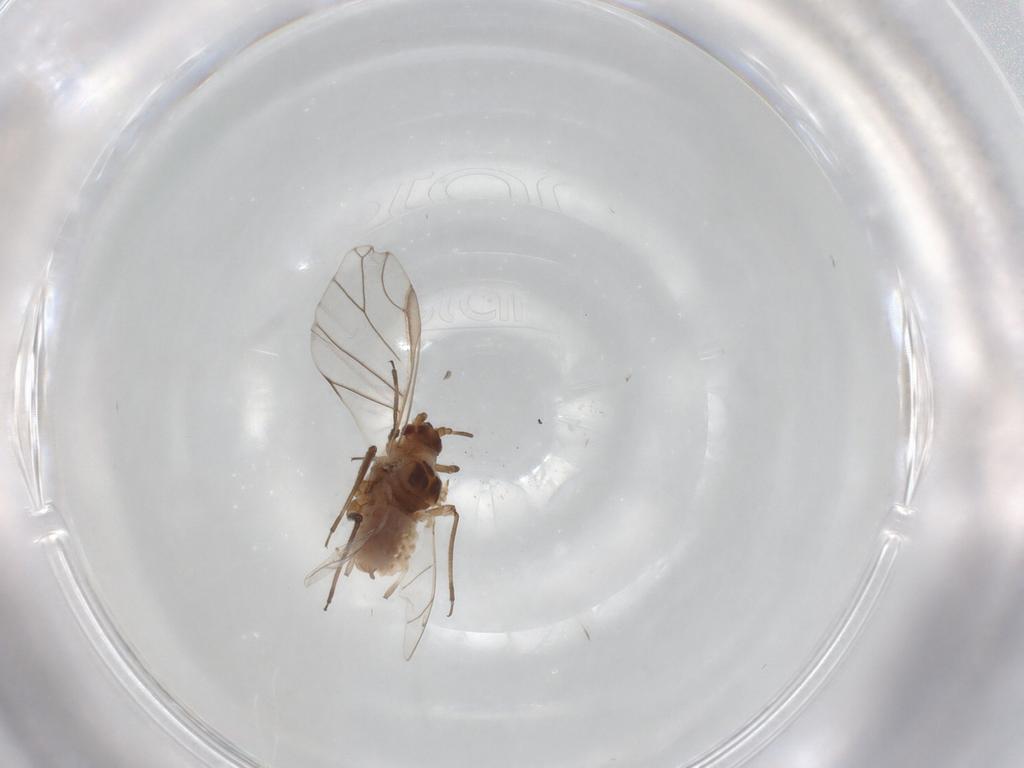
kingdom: Animalia
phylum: Arthropoda
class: Insecta
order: Hemiptera
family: Aphididae
